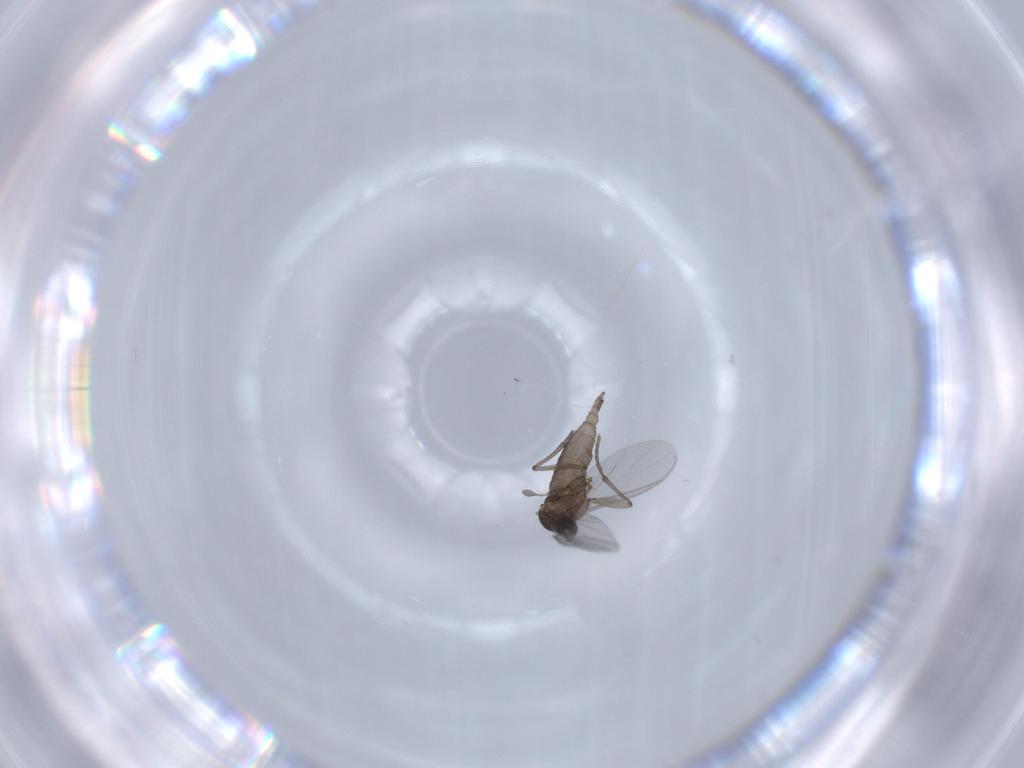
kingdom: Animalia
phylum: Arthropoda
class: Insecta
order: Diptera
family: Sciaridae
